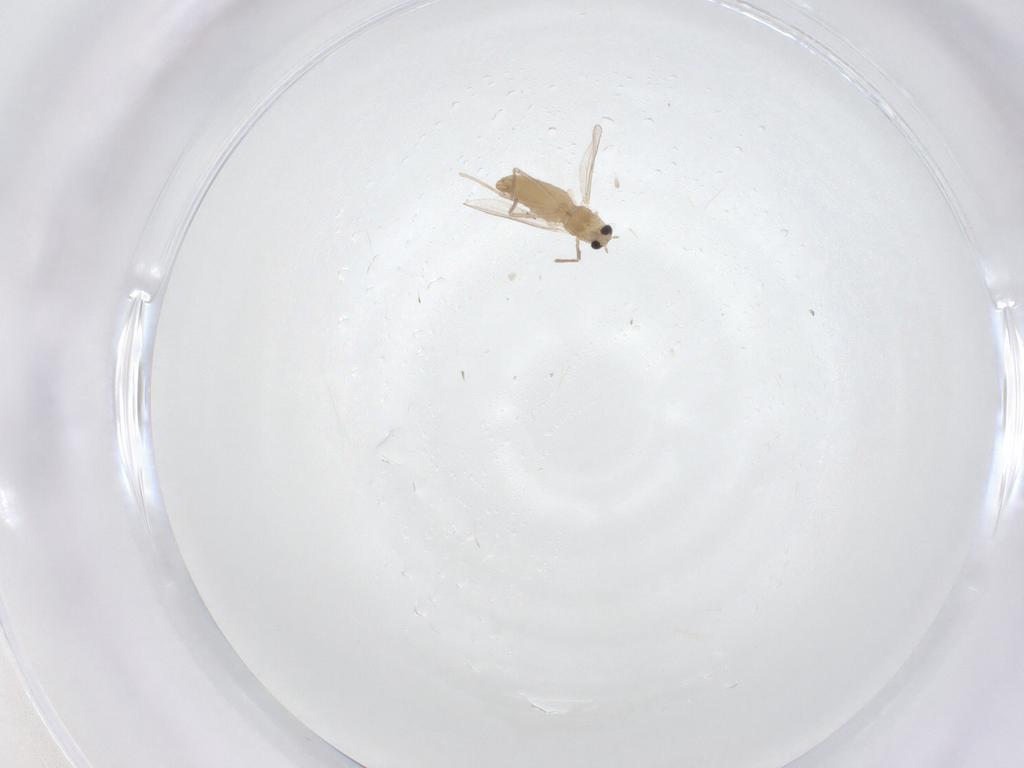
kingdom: Animalia
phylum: Arthropoda
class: Insecta
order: Diptera
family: Chironomidae
